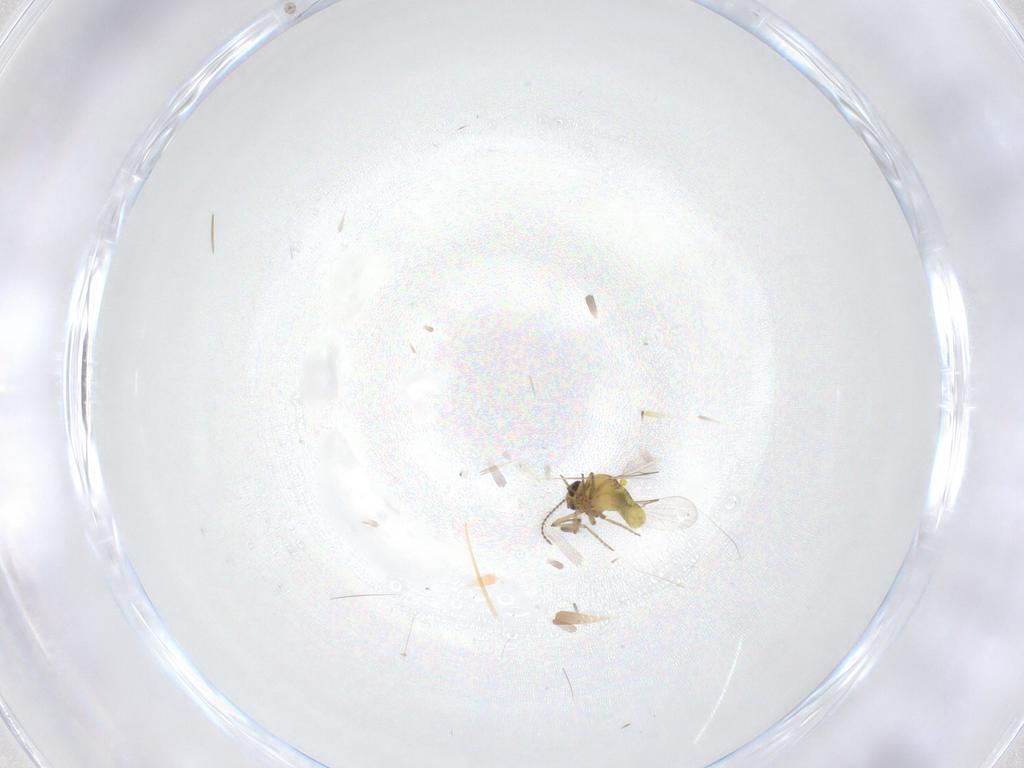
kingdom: Animalia
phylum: Arthropoda
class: Insecta
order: Diptera
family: Ceratopogonidae
